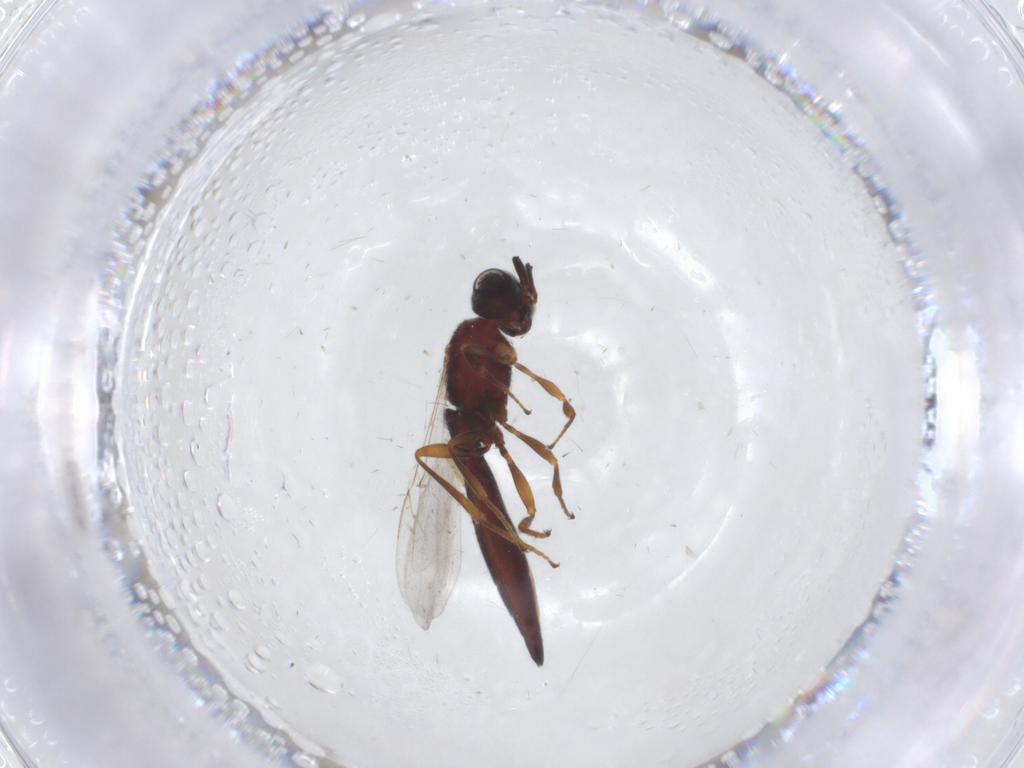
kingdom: Animalia
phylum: Arthropoda
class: Insecta
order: Hymenoptera
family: Scelionidae
